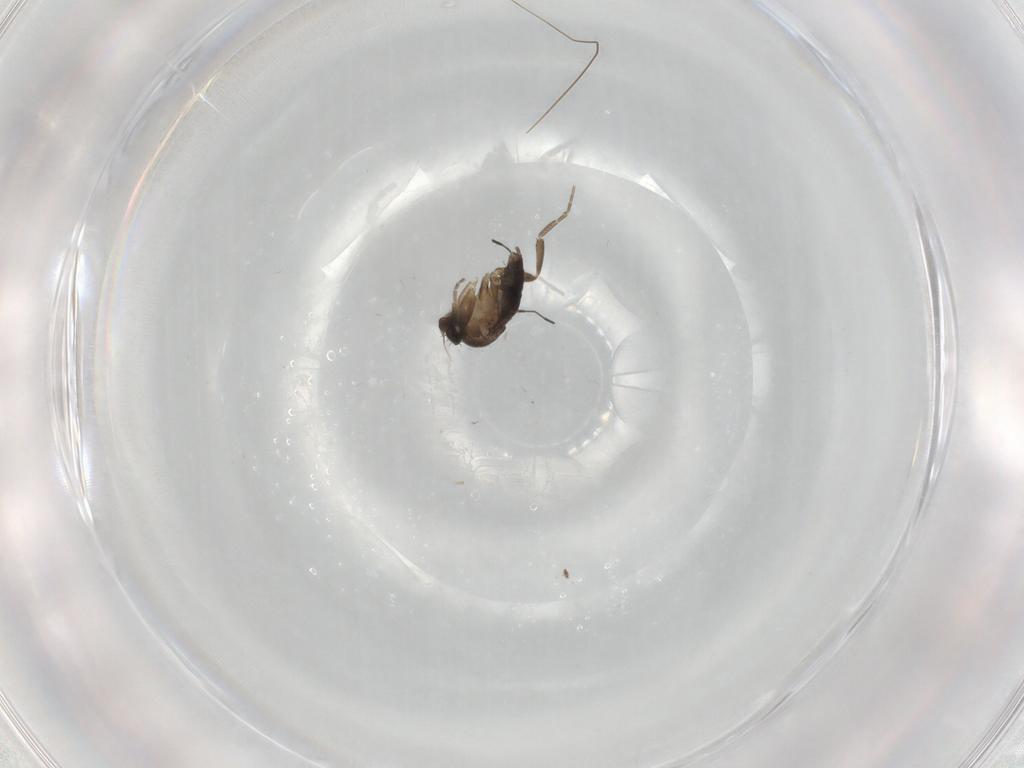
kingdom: Animalia
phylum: Arthropoda
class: Insecta
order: Diptera
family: Phoridae
